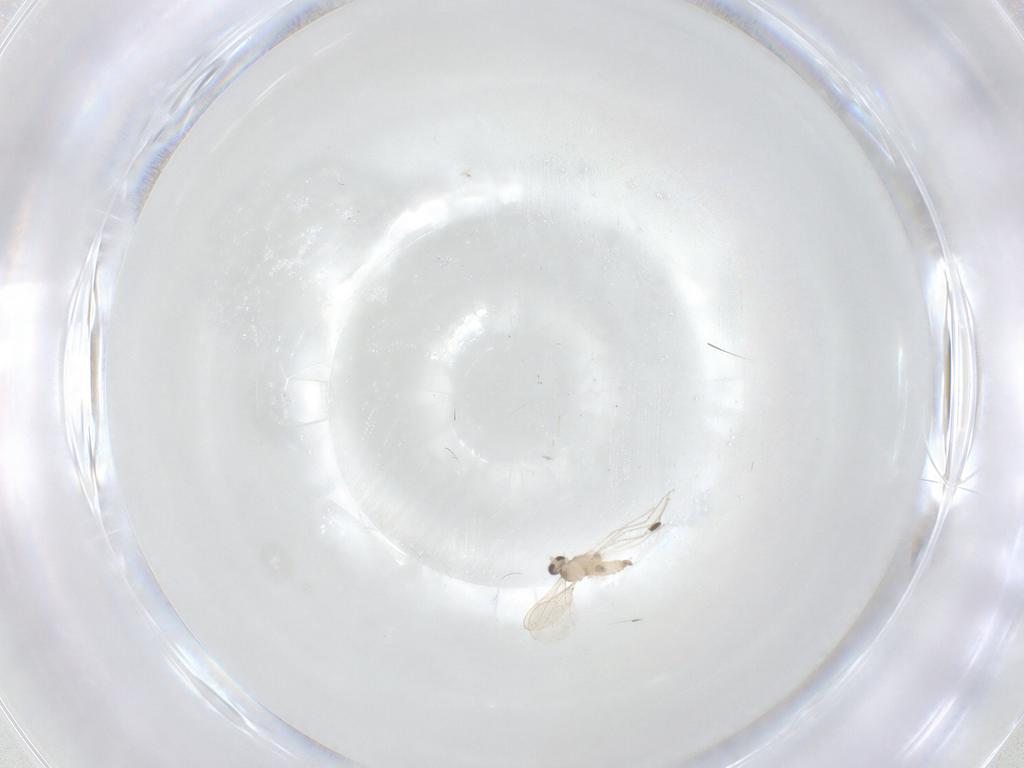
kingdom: Animalia
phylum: Arthropoda
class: Insecta
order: Diptera
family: Cecidomyiidae
